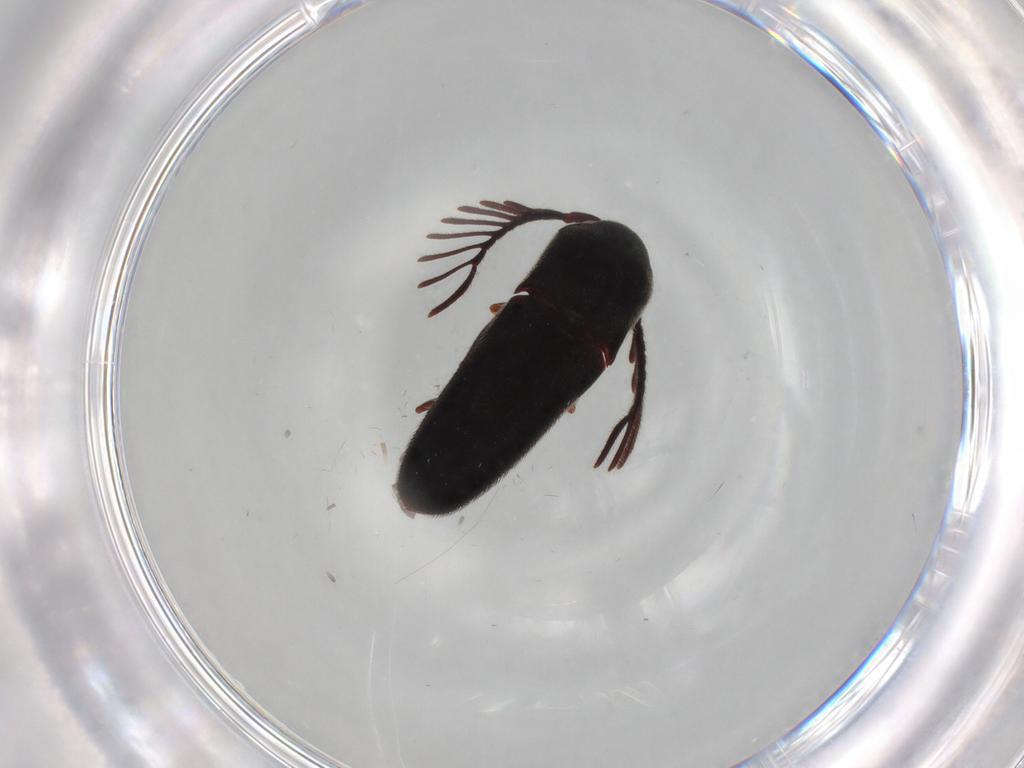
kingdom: Animalia
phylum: Arthropoda
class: Insecta
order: Coleoptera
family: Eucnemidae
